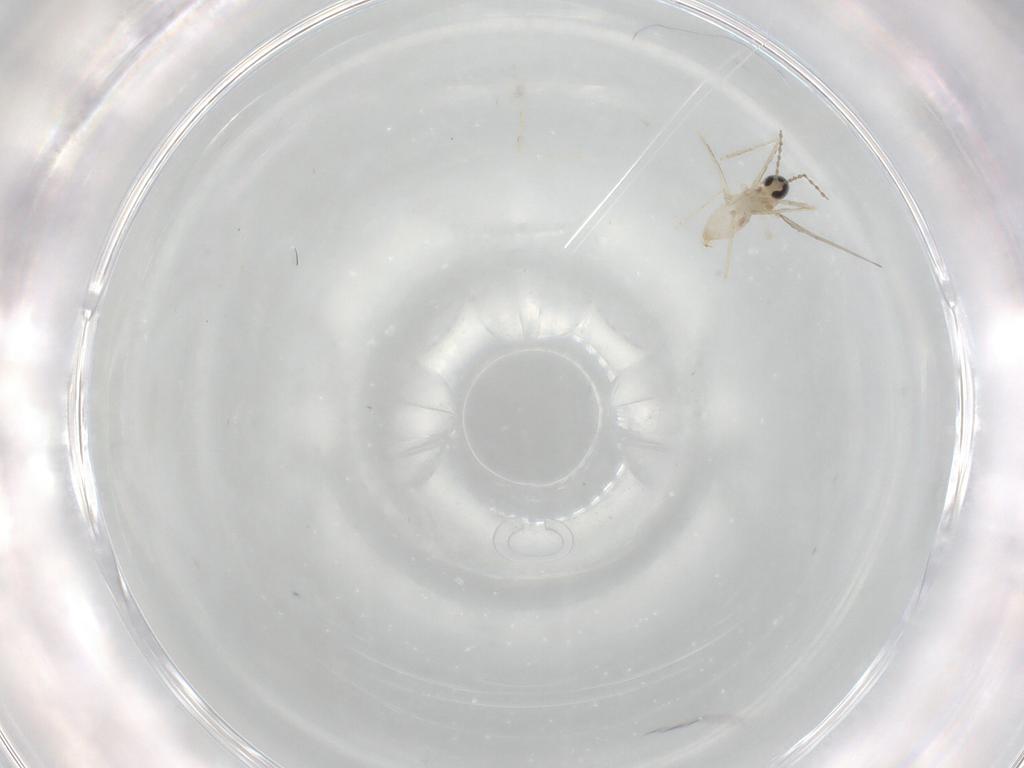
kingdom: Animalia
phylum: Arthropoda
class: Insecta
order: Diptera
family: Cecidomyiidae
